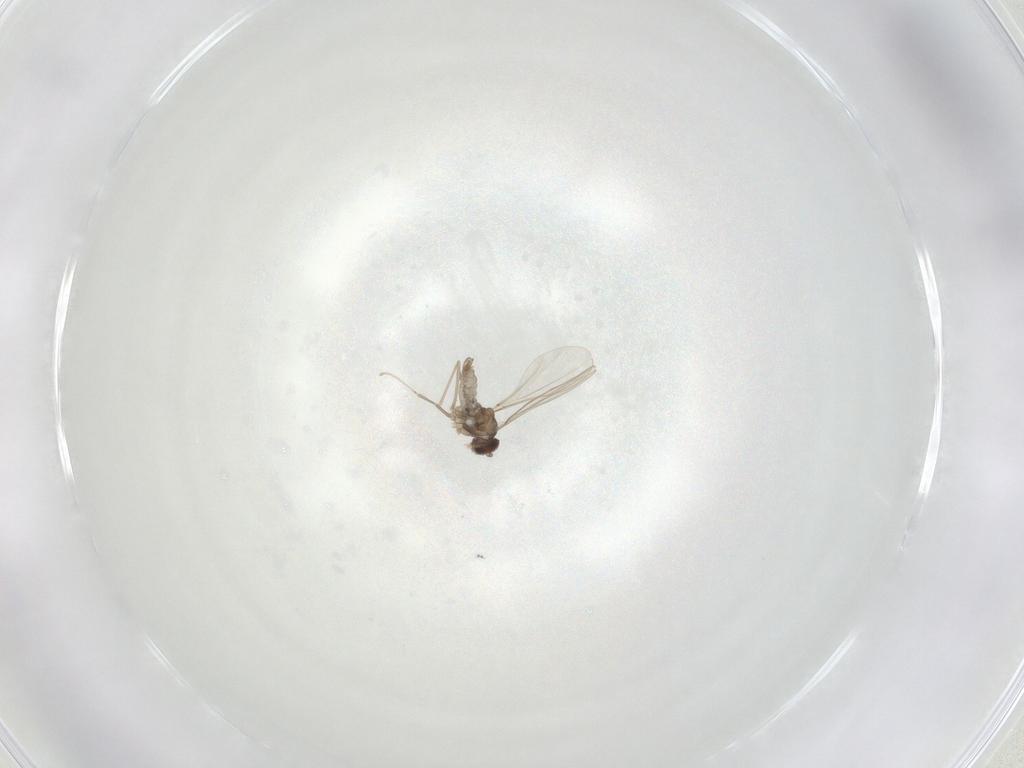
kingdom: Animalia
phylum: Arthropoda
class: Insecta
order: Diptera
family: Cecidomyiidae
